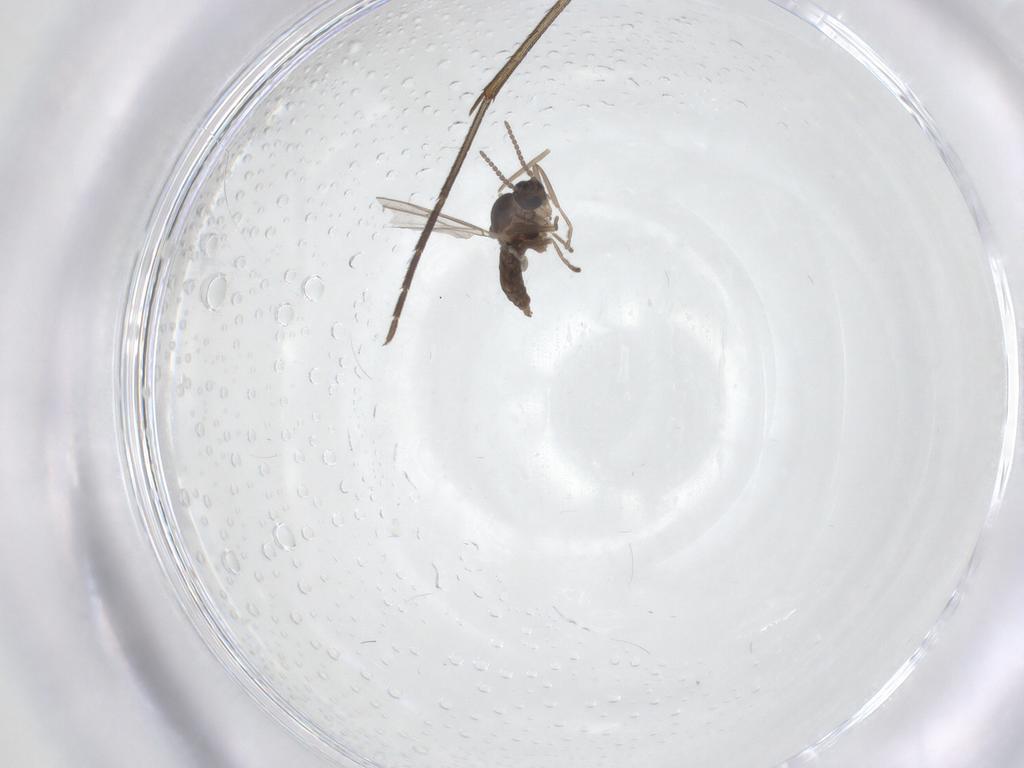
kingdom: Animalia
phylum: Arthropoda
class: Insecta
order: Diptera
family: Cecidomyiidae
